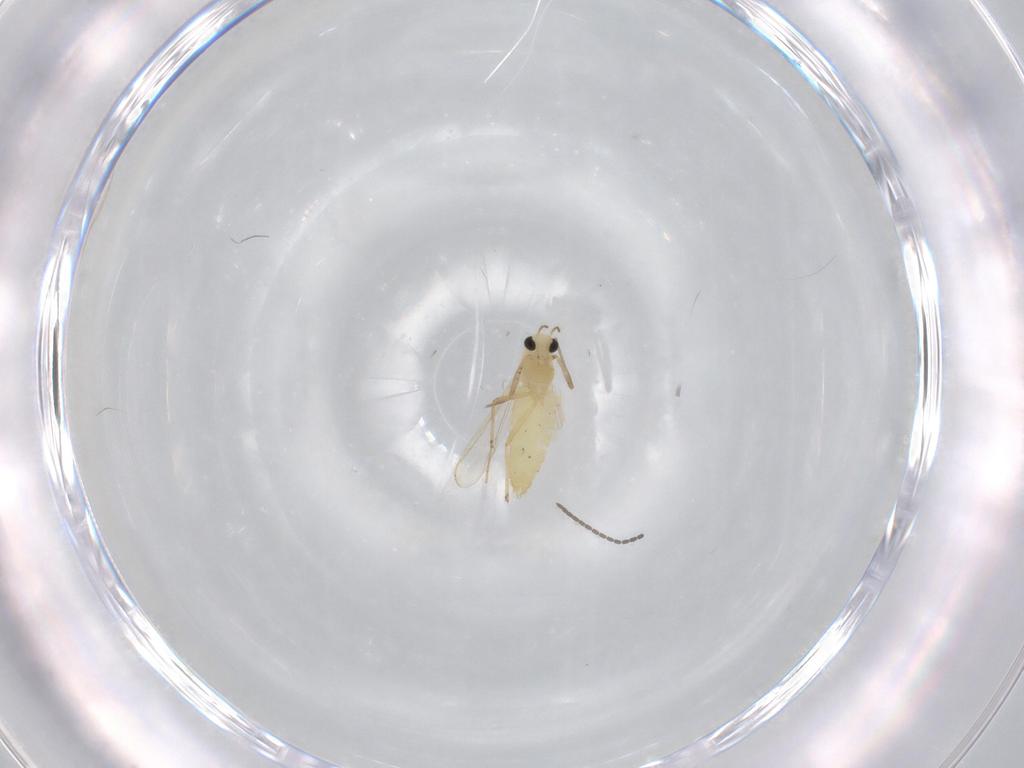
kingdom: Animalia
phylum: Arthropoda
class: Insecta
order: Diptera
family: Chironomidae
